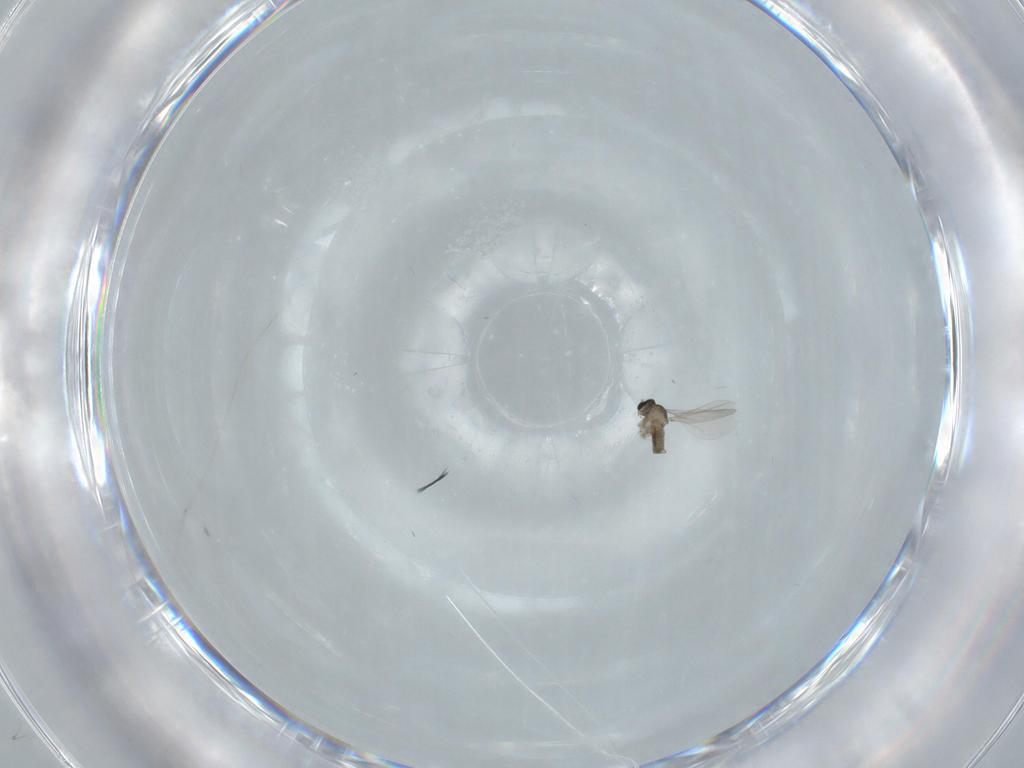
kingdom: Animalia
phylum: Arthropoda
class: Insecta
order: Diptera
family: Cecidomyiidae
